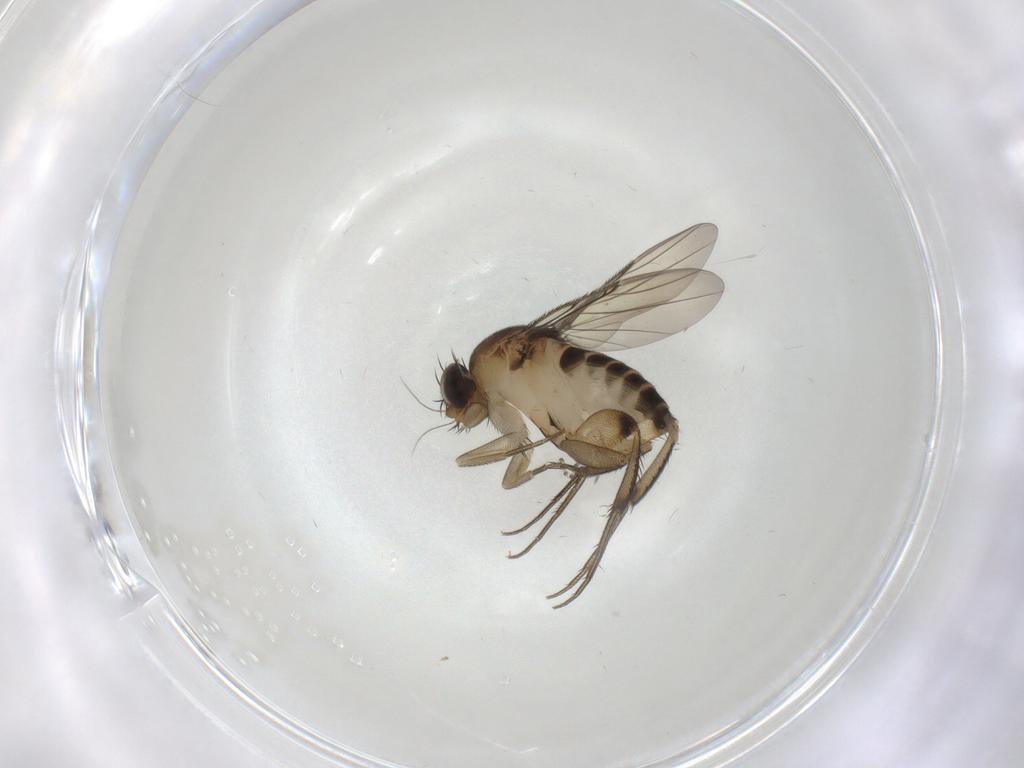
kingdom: Animalia
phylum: Arthropoda
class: Insecta
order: Diptera
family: Phoridae
